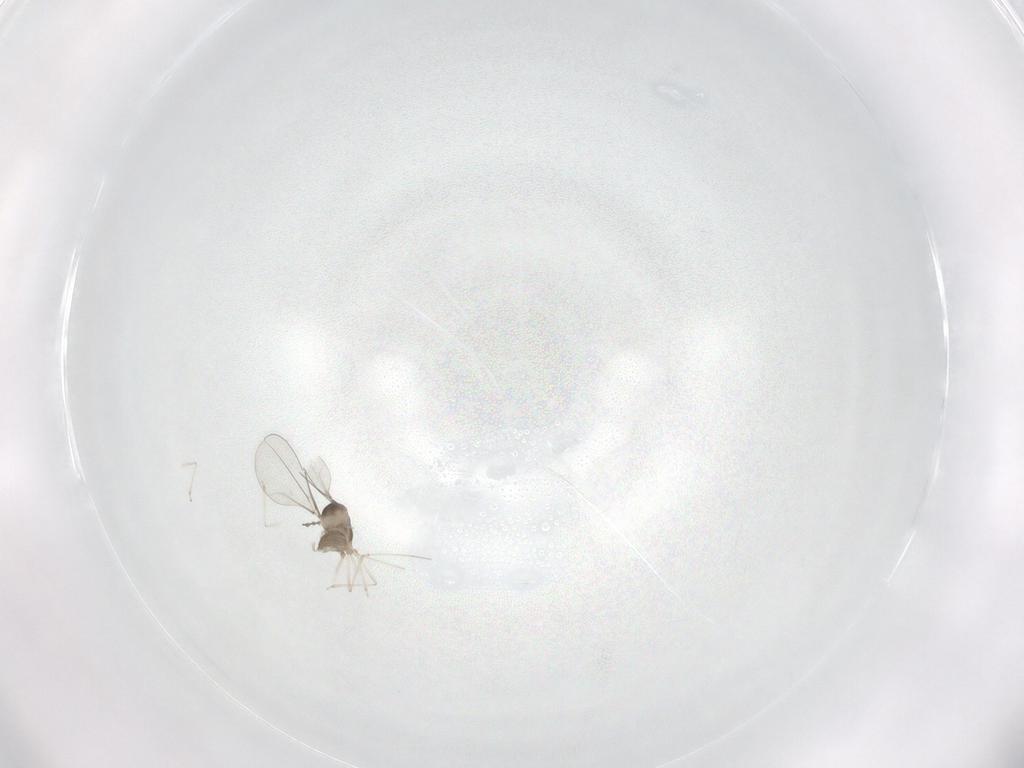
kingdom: Animalia
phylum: Arthropoda
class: Insecta
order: Diptera
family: Cecidomyiidae
